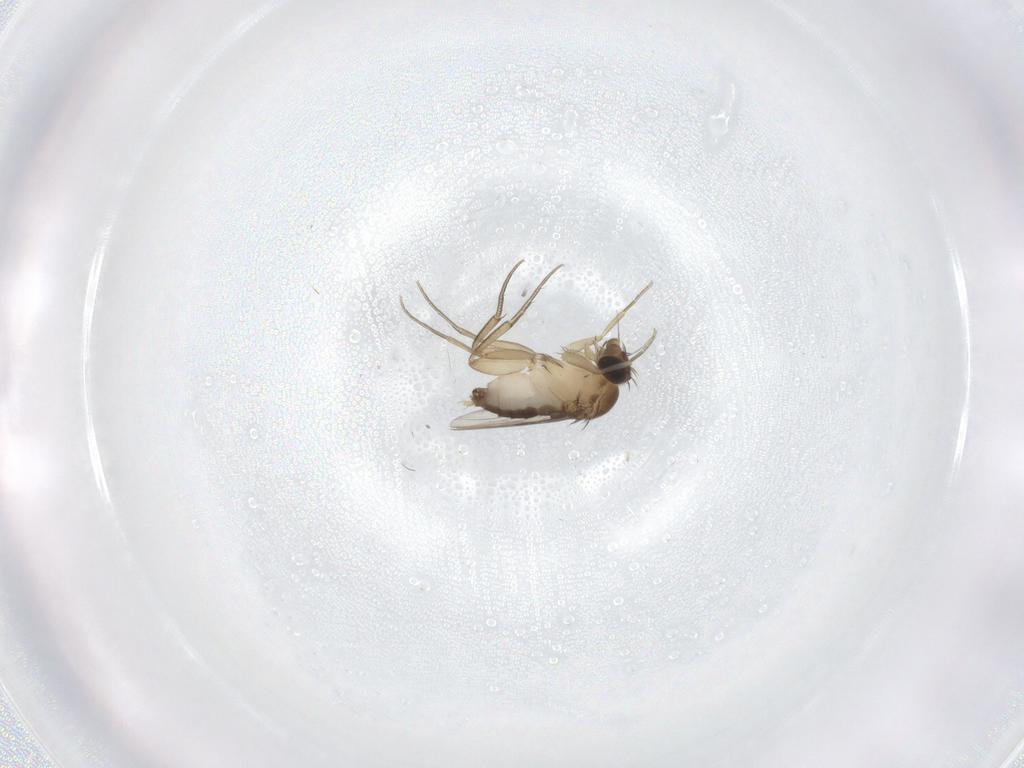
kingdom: Animalia
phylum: Arthropoda
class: Insecta
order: Diptera
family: Phoridae
